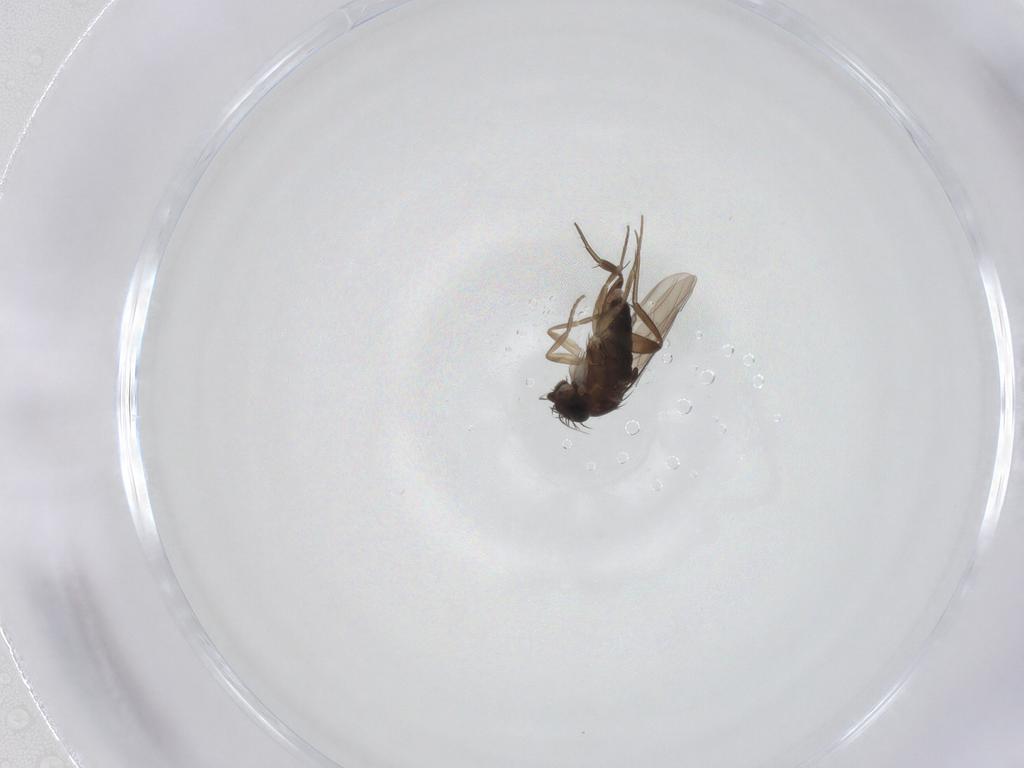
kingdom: Animalia
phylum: Arthropoda
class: Insecta
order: Diptera
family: Phoridae
